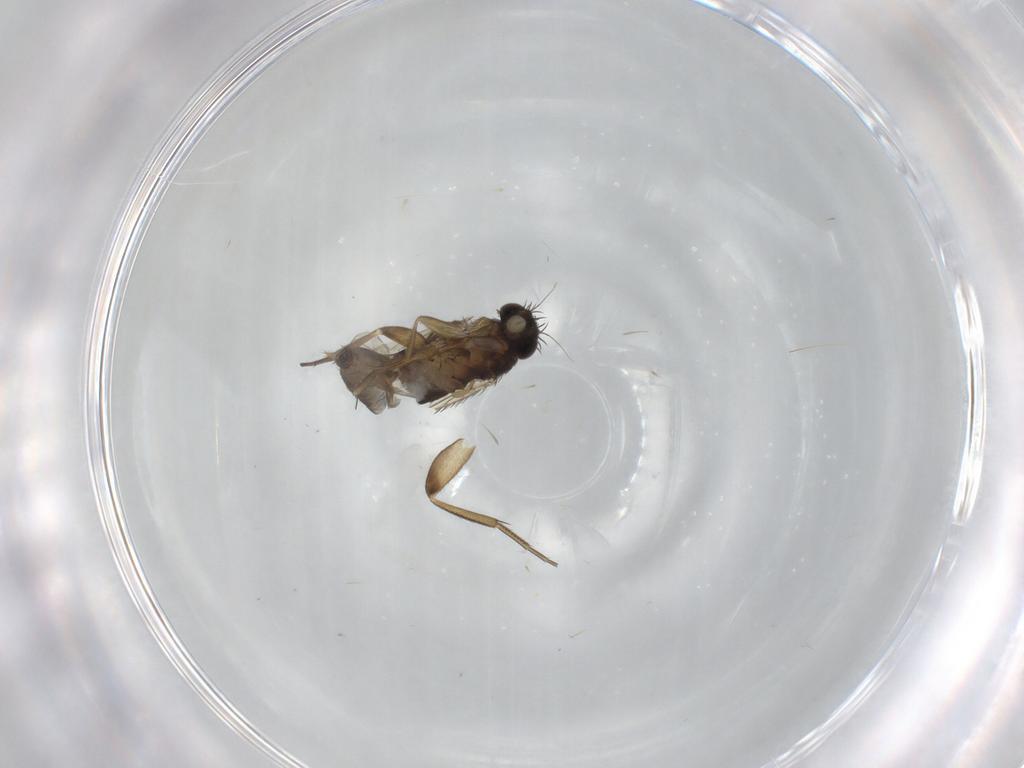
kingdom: Animalia
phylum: Arthropoda
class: Insecta
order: Diptera
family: Phoridae
